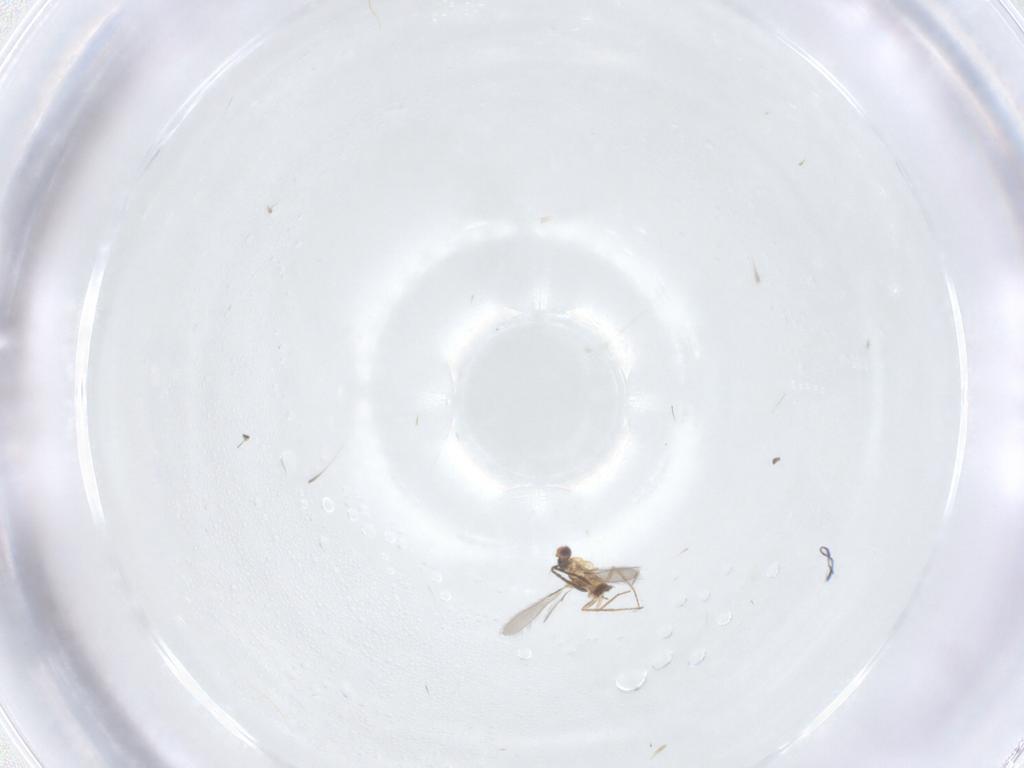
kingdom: Animalia
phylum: Arthropoda
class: Insecta
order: Hymenoptera
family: Mymaridae
